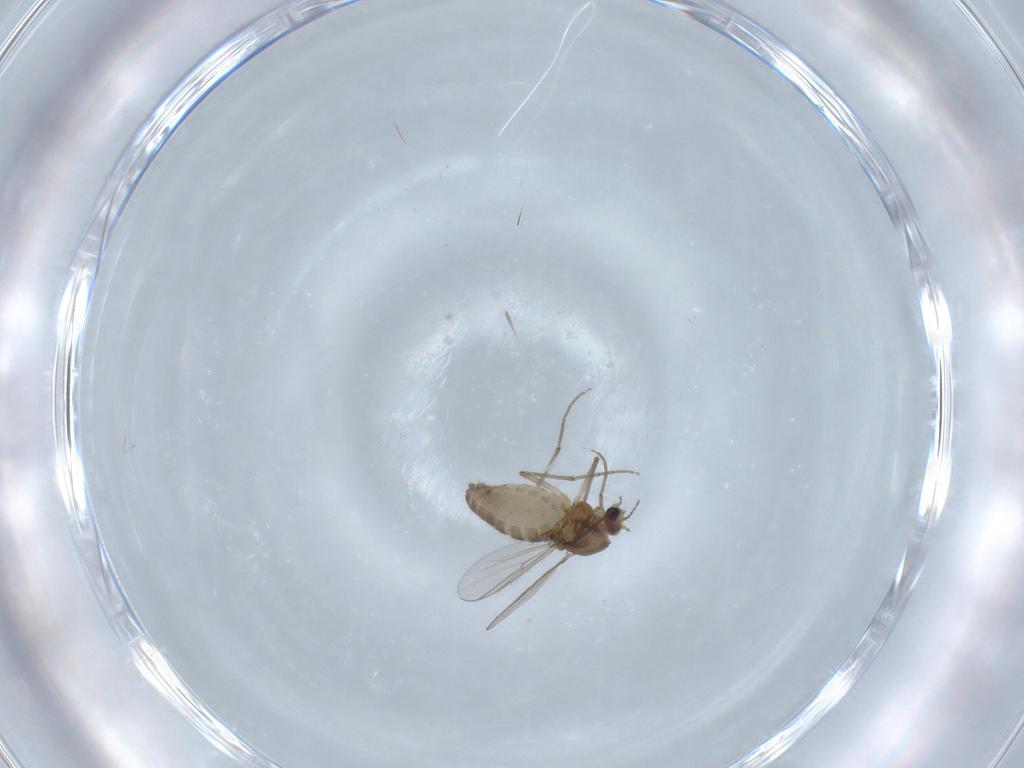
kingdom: Animalia
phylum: Arthropoda
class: Insecta
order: Diptera
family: Chironomidae
